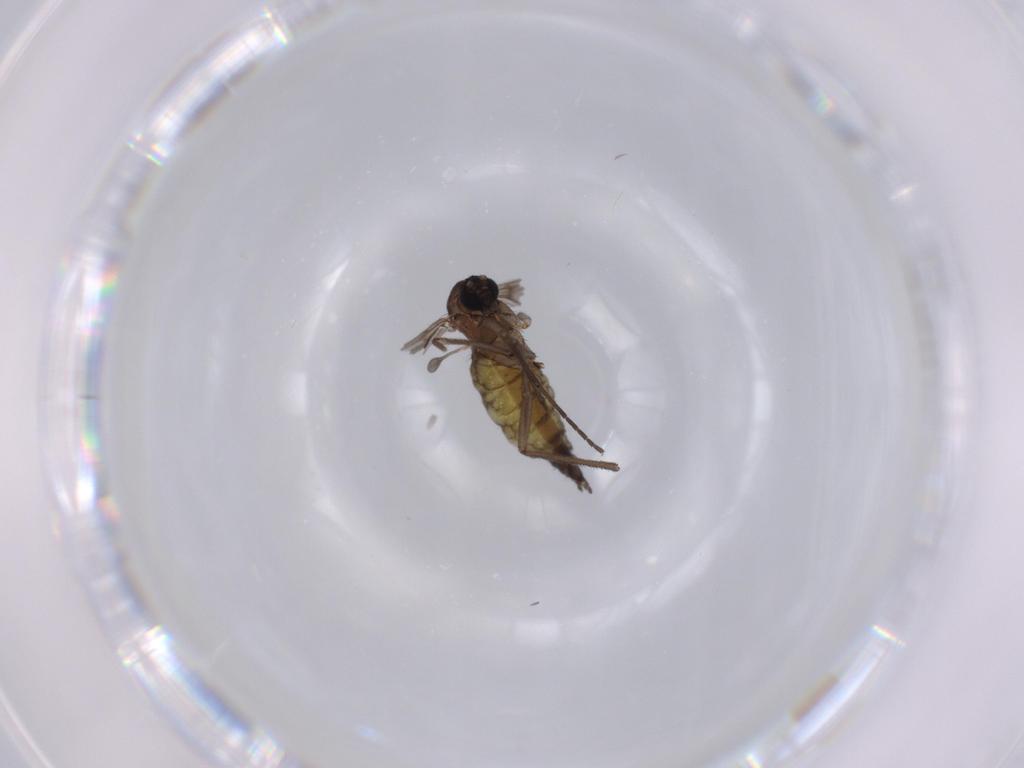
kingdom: Animalia
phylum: Arthropoda
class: Insecta
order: Diptera
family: Sciaridae
